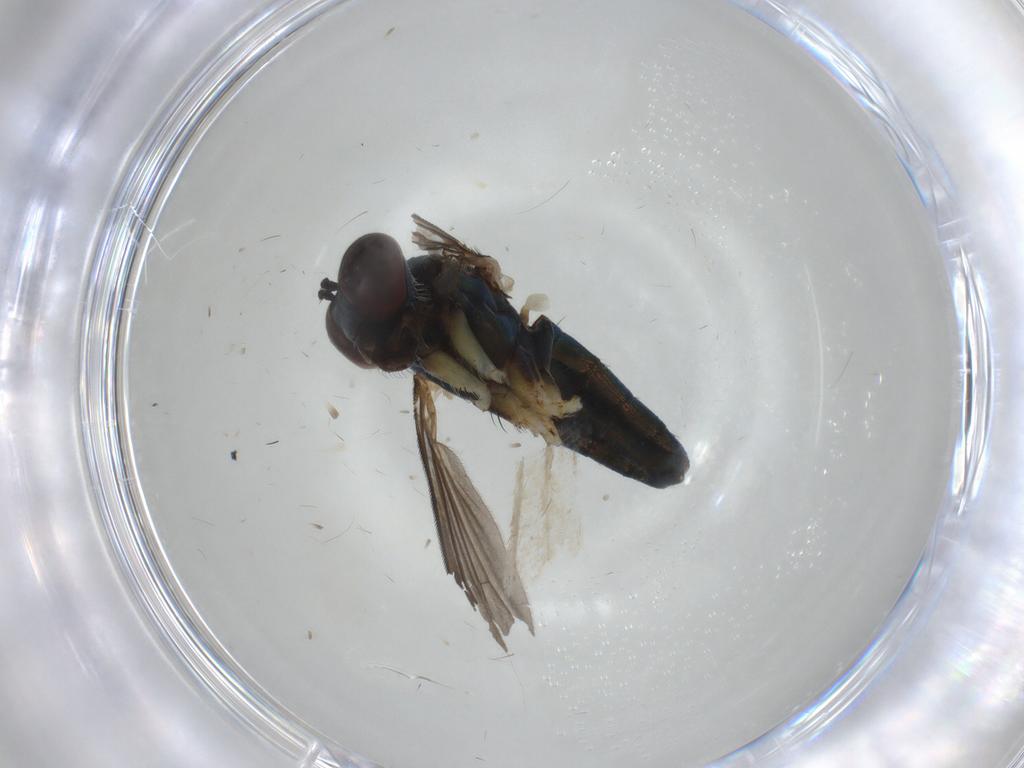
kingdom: Animalia
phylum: Arthropoda
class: Insecta
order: Diptera
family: Dolichopodidae
